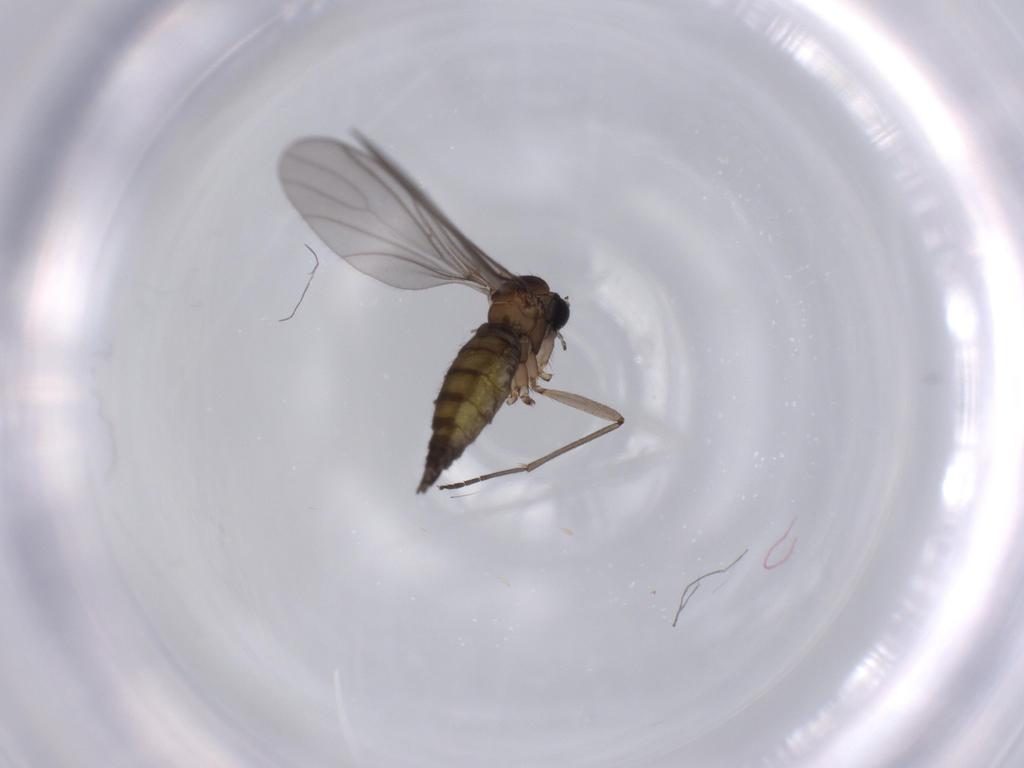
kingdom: Animalia
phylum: Arthropoda
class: Insecta
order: Diptera
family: Sciaridae
